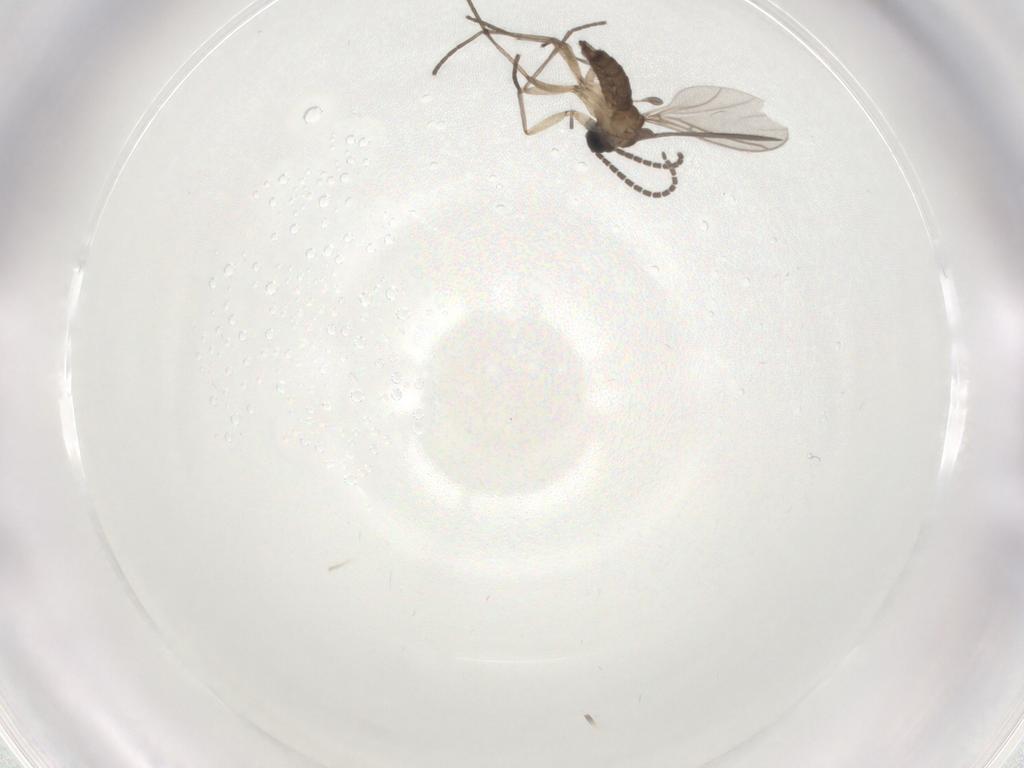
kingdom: Animalia
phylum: Arthropoda
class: Insecta
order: Diptera
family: Sciaridae
